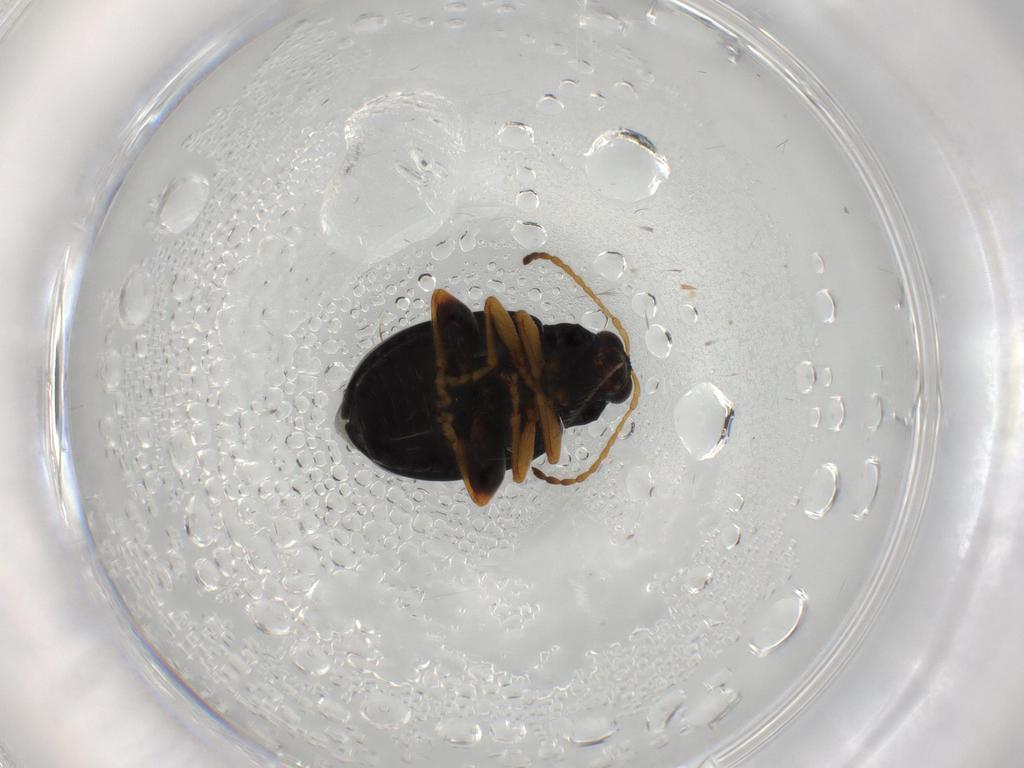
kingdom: Animalia
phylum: Arthropoda
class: Insecta
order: Coleoptera
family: Chrysomelidae
